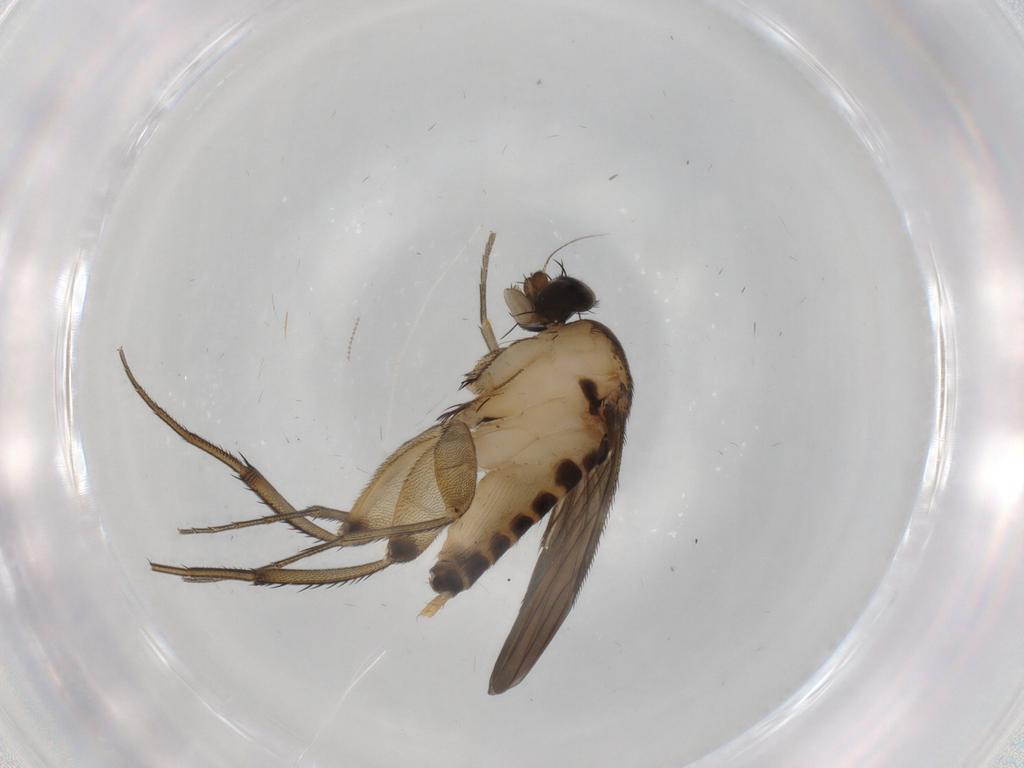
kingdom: Animalia
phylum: Arthropoda
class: Insecta
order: Diptera
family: Phoridae
